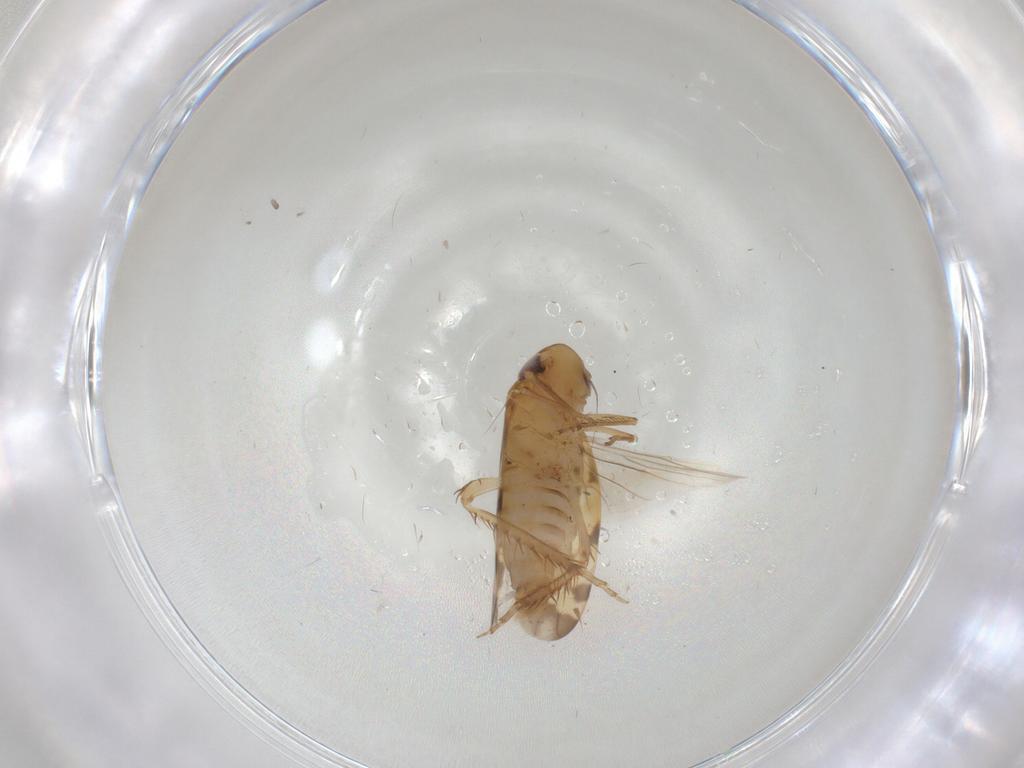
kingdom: Animalia
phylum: Arthropoda
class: Insecta
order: Hemiptera
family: Cicadellidae
